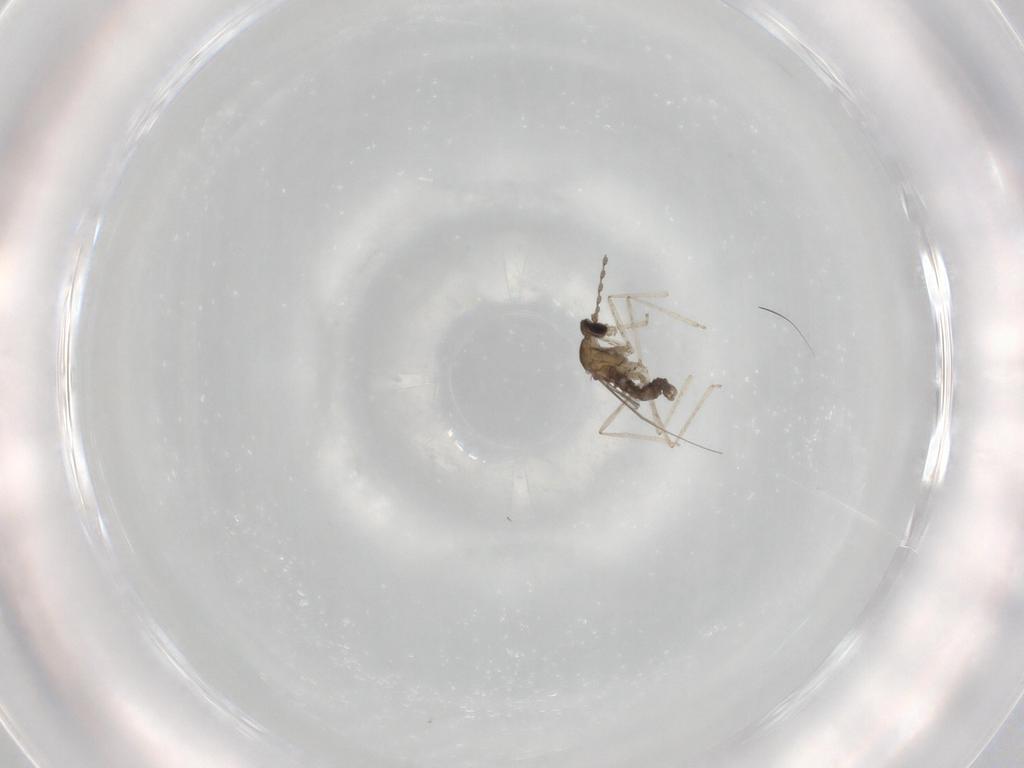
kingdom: Animalia
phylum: Arthropoda
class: Insecta
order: Diptera
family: Cecidomyiidae
